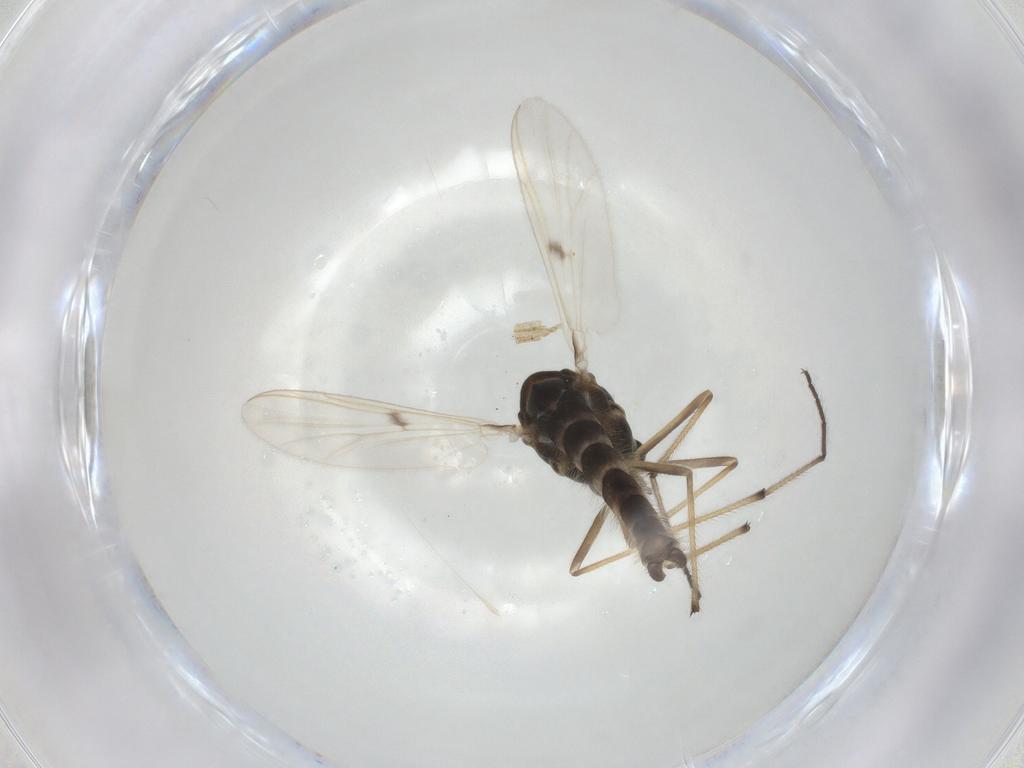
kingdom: Animalia
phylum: Arthropoda
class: Insecta
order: Diptera
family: Chironomidae
